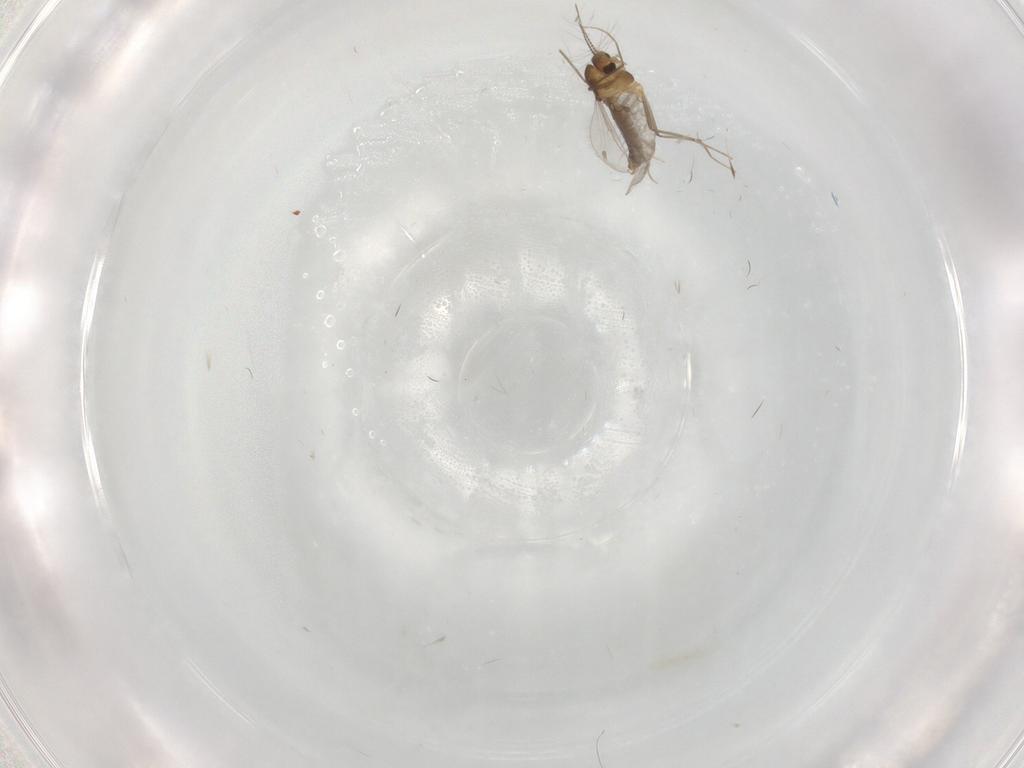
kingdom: Animalia
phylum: Arthropoda
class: Insecta
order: Diptera
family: Chironomidae
